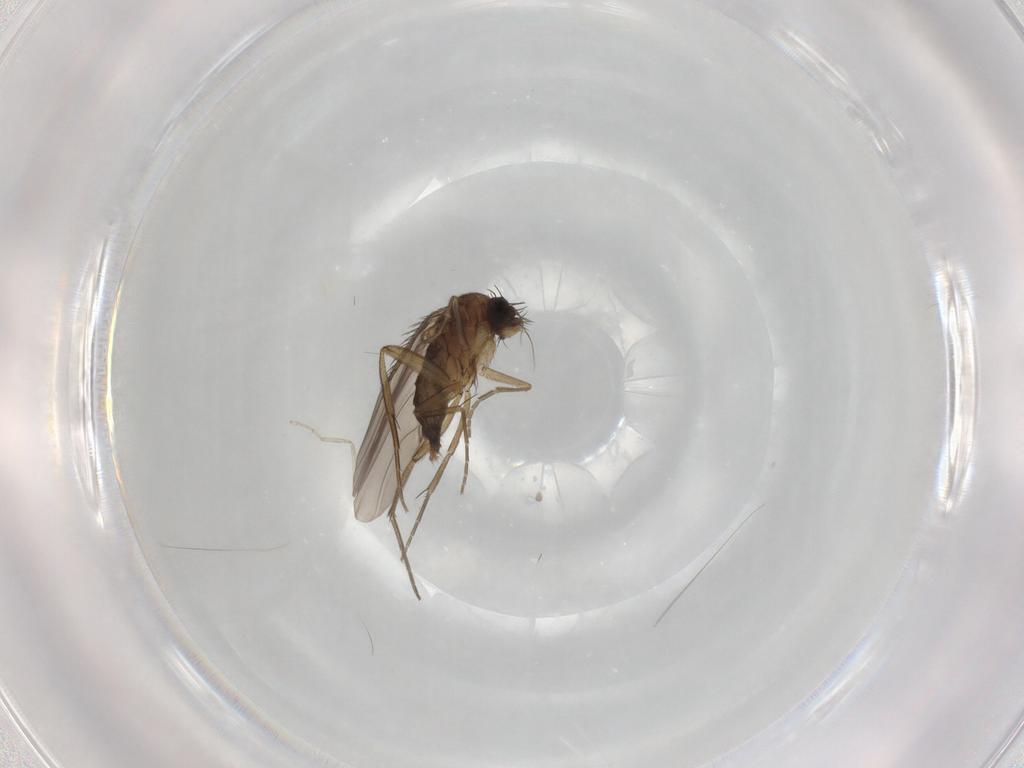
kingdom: Animalia
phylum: Arthropoda
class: Insecta
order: Diptera
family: Phoridae
